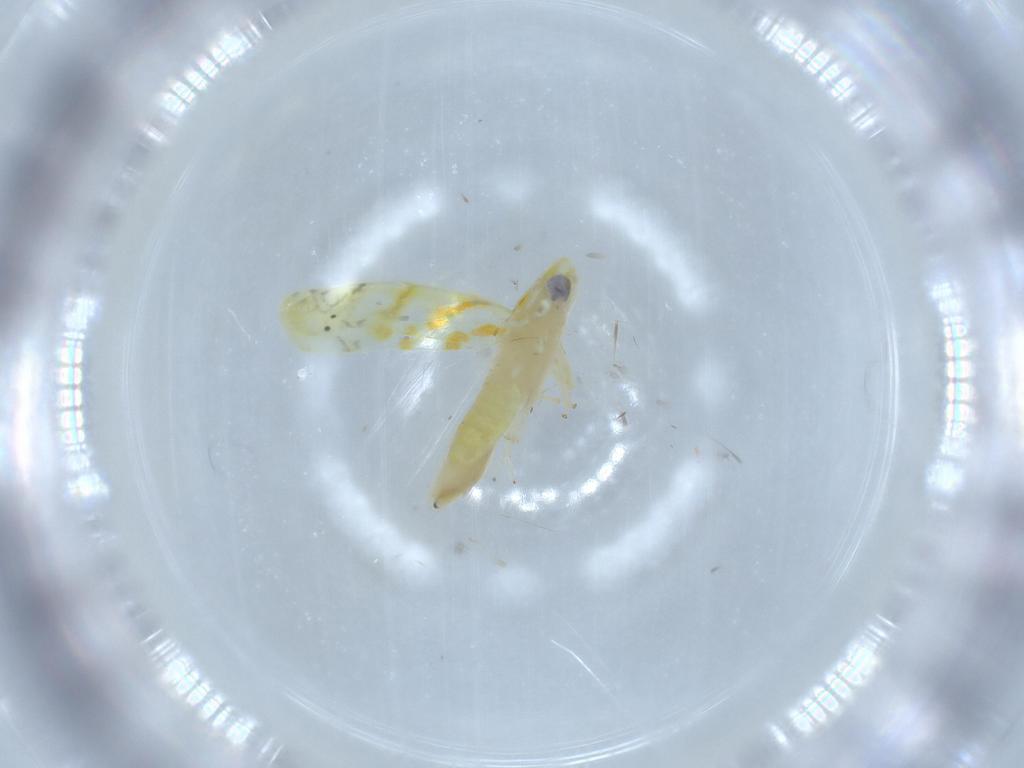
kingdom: Animalia
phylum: Arthropoda
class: Insecta
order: Hemiptera
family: Cicadellidae
